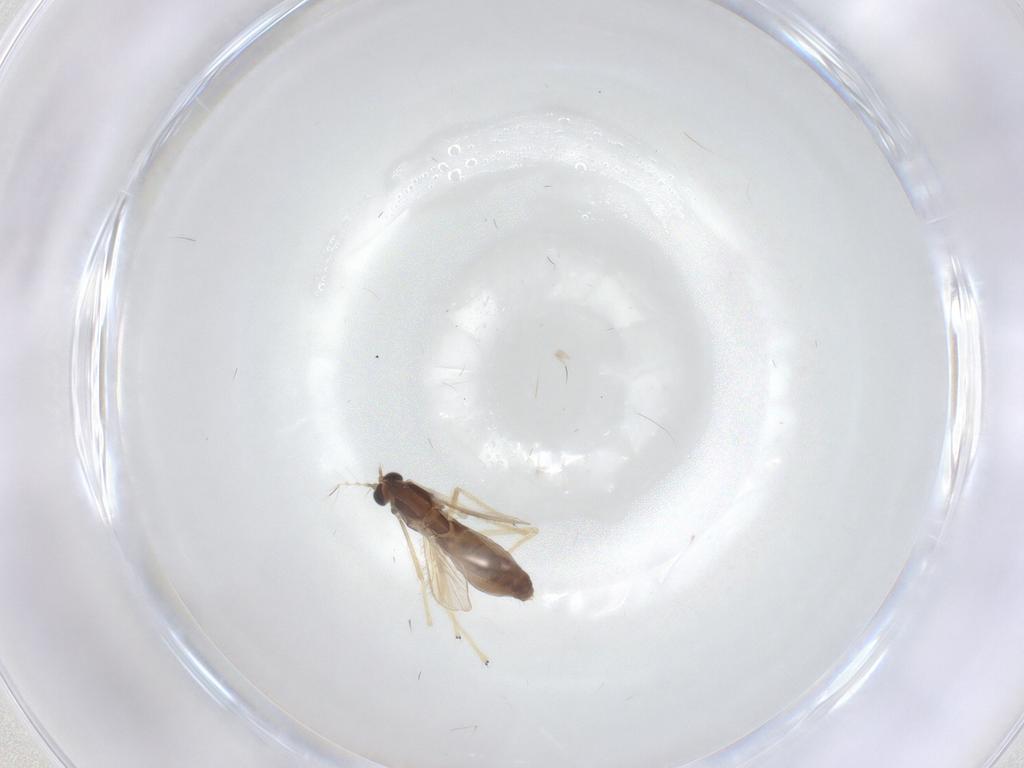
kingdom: Animalia
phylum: Arthropoda
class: Insecta
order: Diptera
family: Chironomidae
